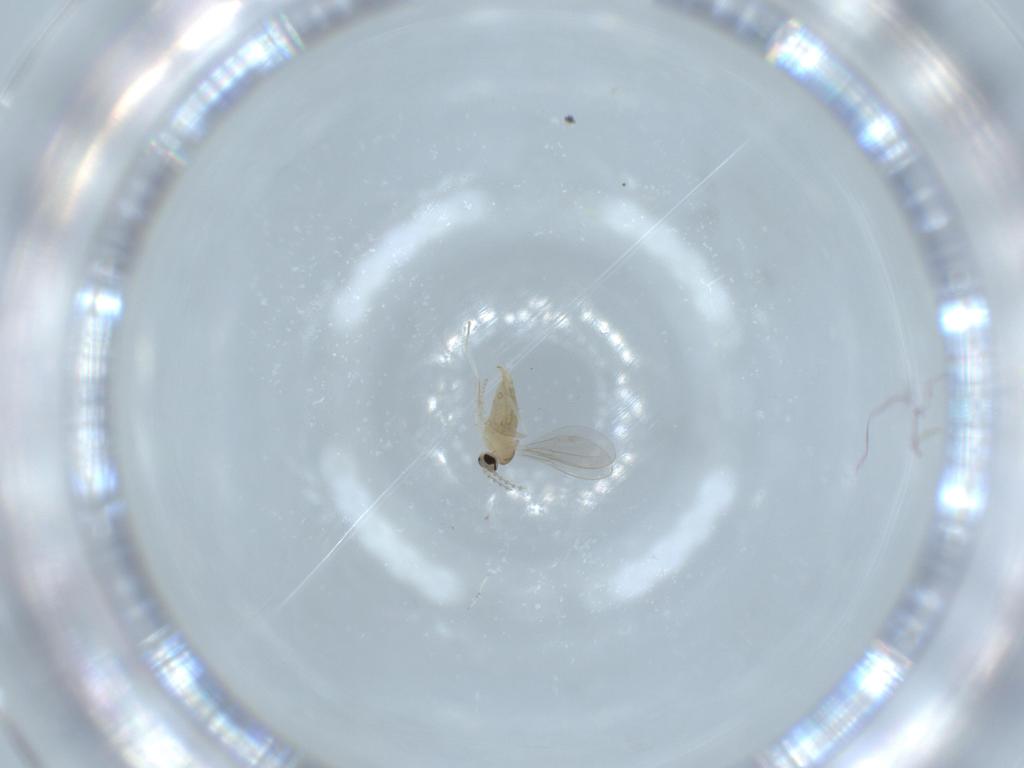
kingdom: Animalia
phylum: Arthropoda
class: Insecta
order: Diptera
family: Cecidomyiidae
